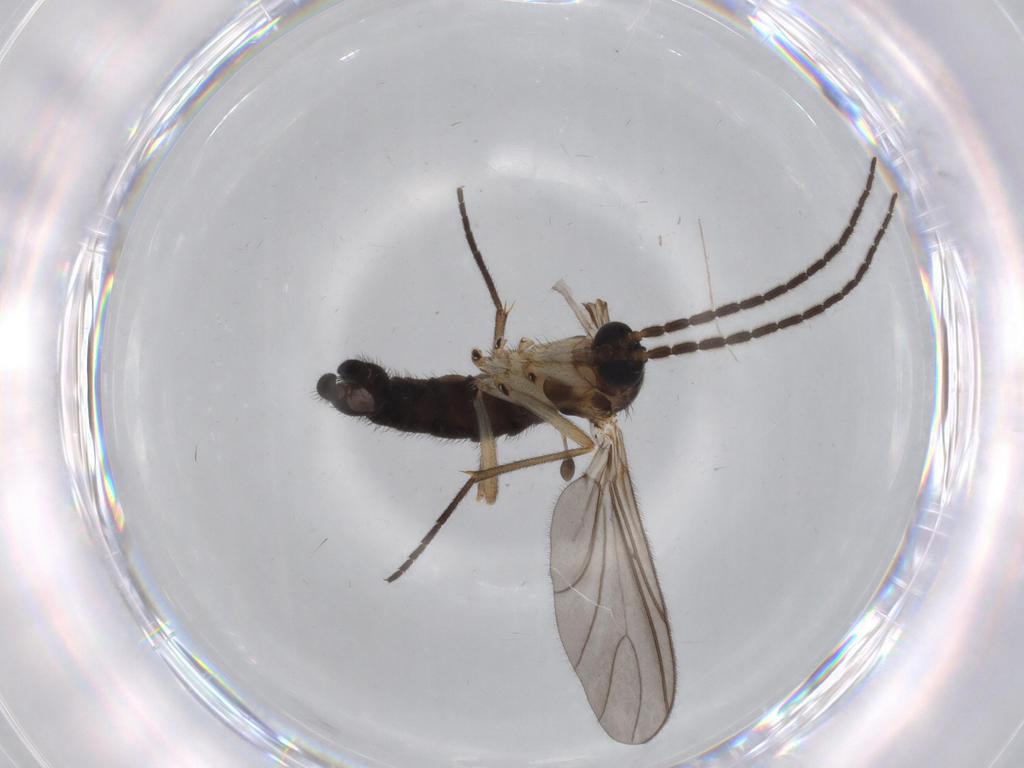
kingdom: Animalia
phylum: Arthropoda
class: Insecta
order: Diptera
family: Sciaridae
